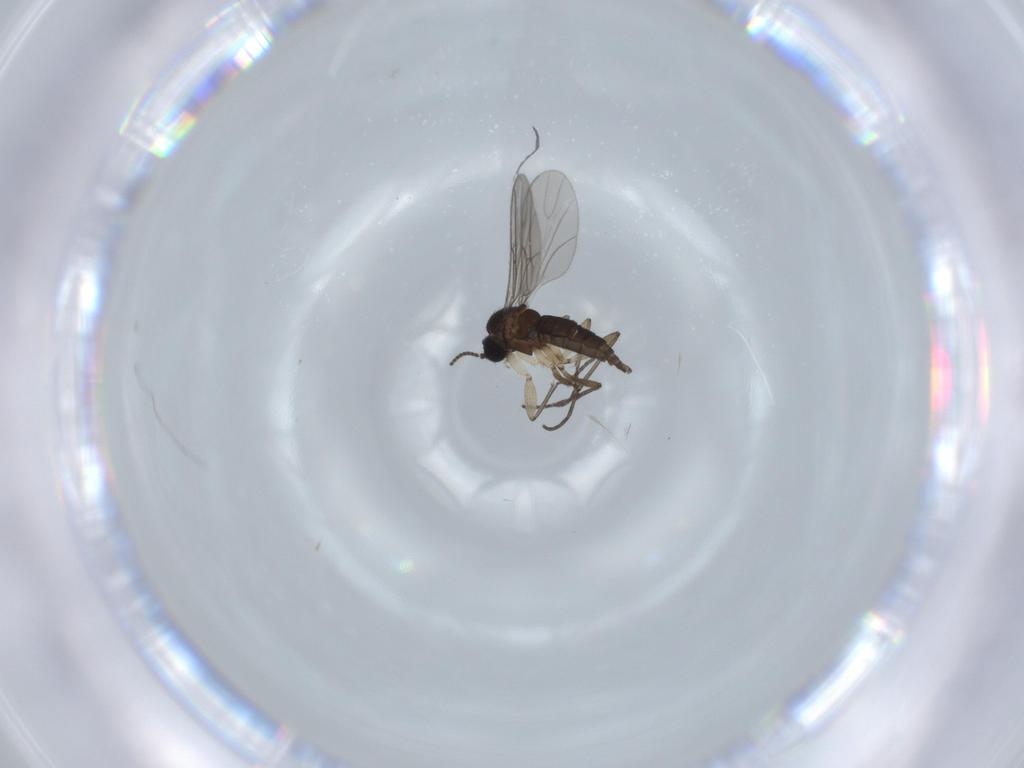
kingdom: Animalia
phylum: Arthropoda
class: Insecta
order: Diptera
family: Sciaridae
